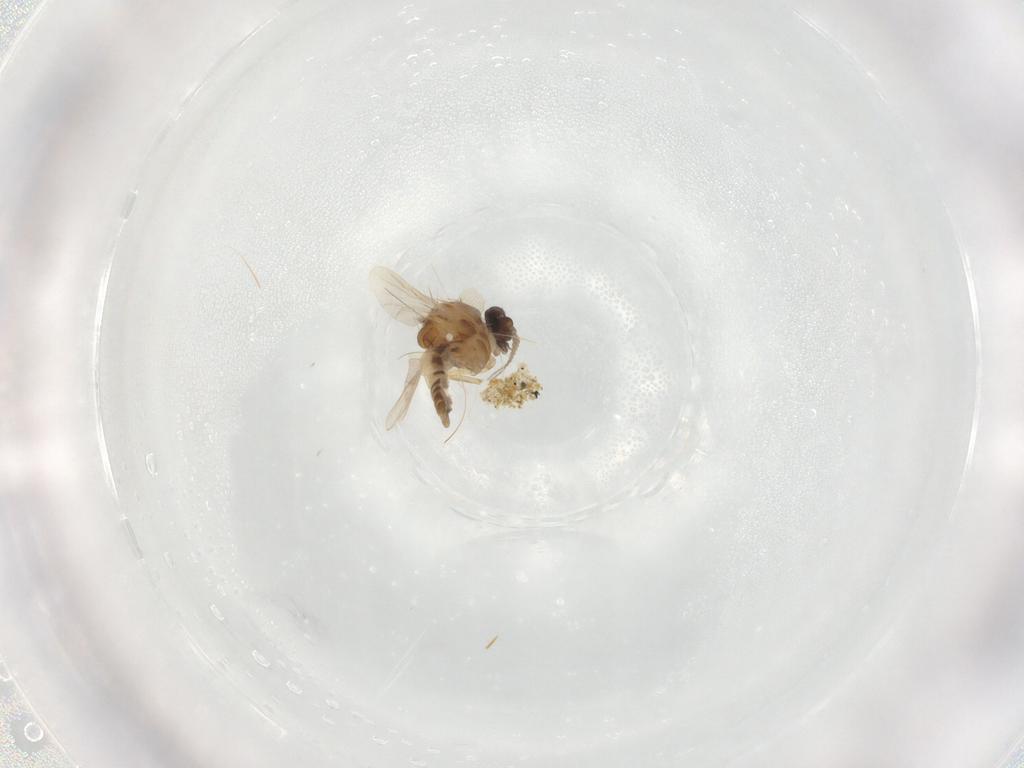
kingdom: Animalia
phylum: Arthropoda
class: Insecta
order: Diptera
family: Ceratopogonidae
